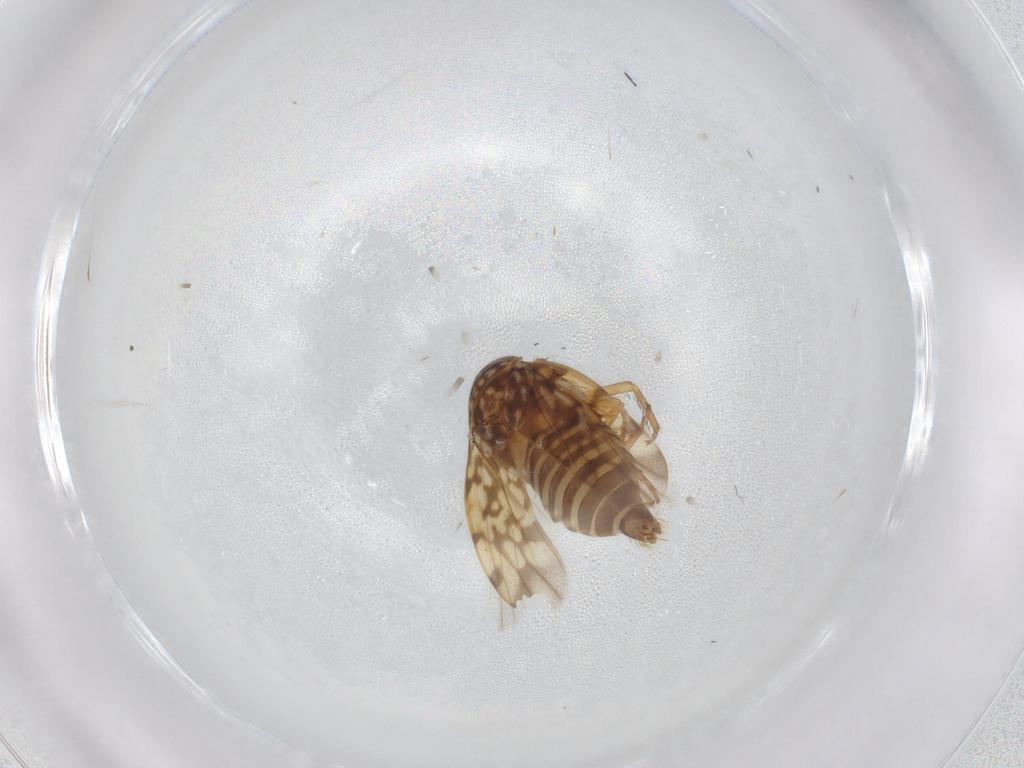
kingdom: Animalia
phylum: Arthropoda
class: Insecta
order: Hemiptera
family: Cicadellidae
